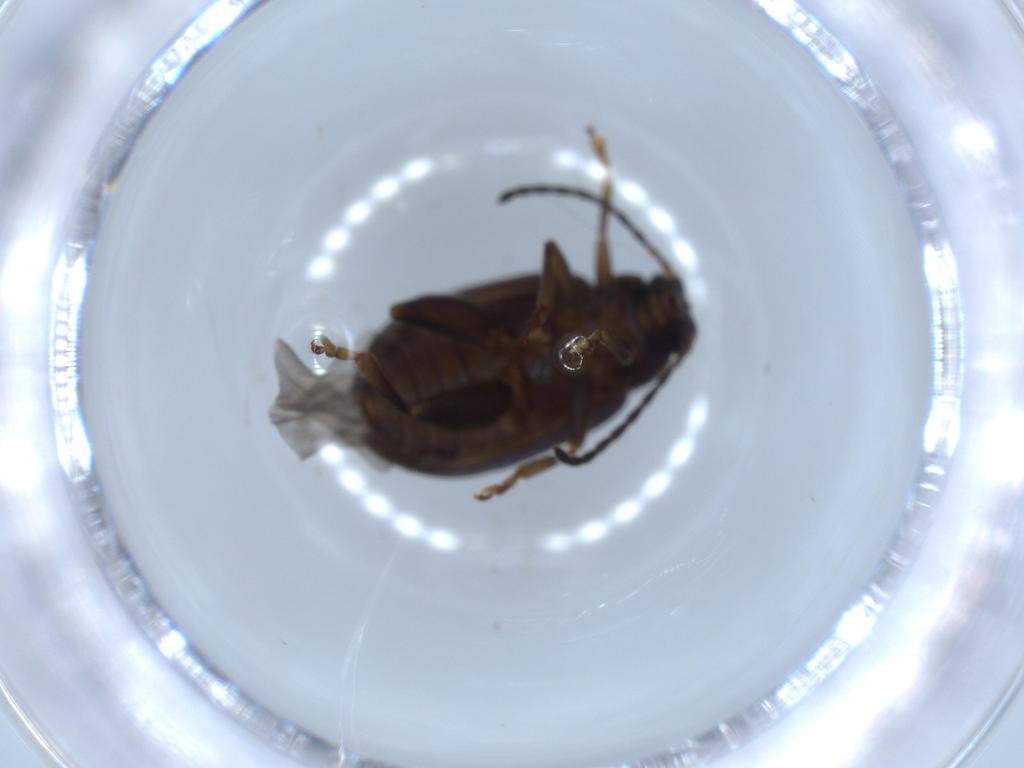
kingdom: Animalia
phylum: Arthropoda
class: Insecta
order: Coleoptera
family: Chrysomelidae
